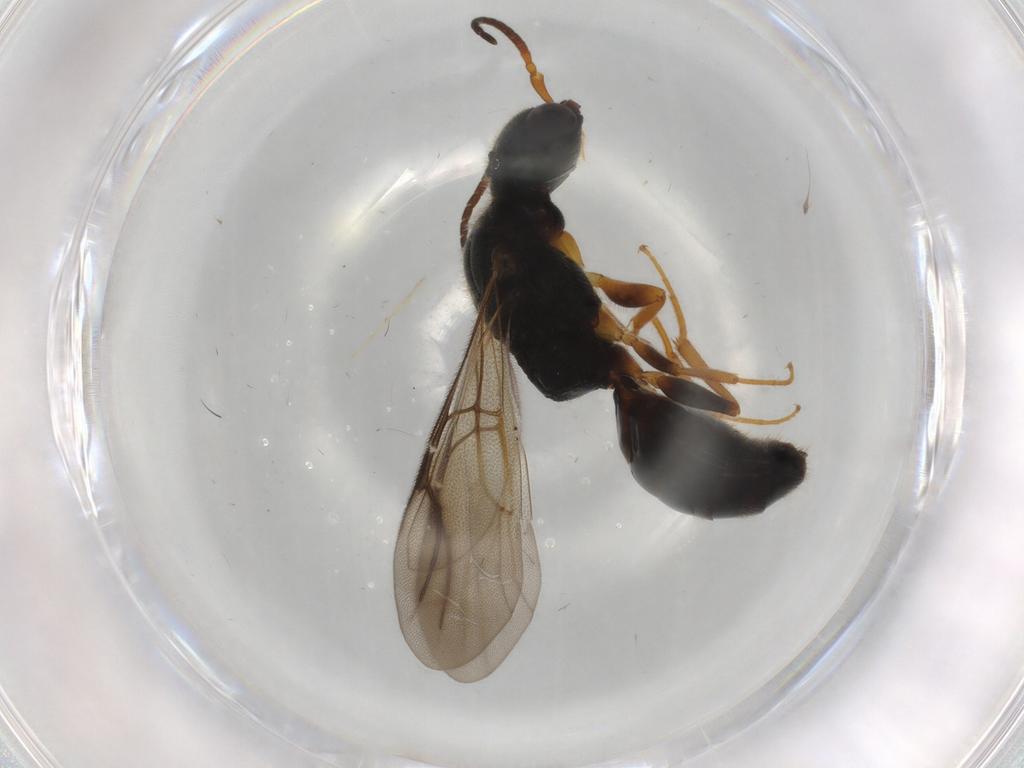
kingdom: Animalia
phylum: Arthropoda
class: Insecta
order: Hymenoptera
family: Bethylidae
